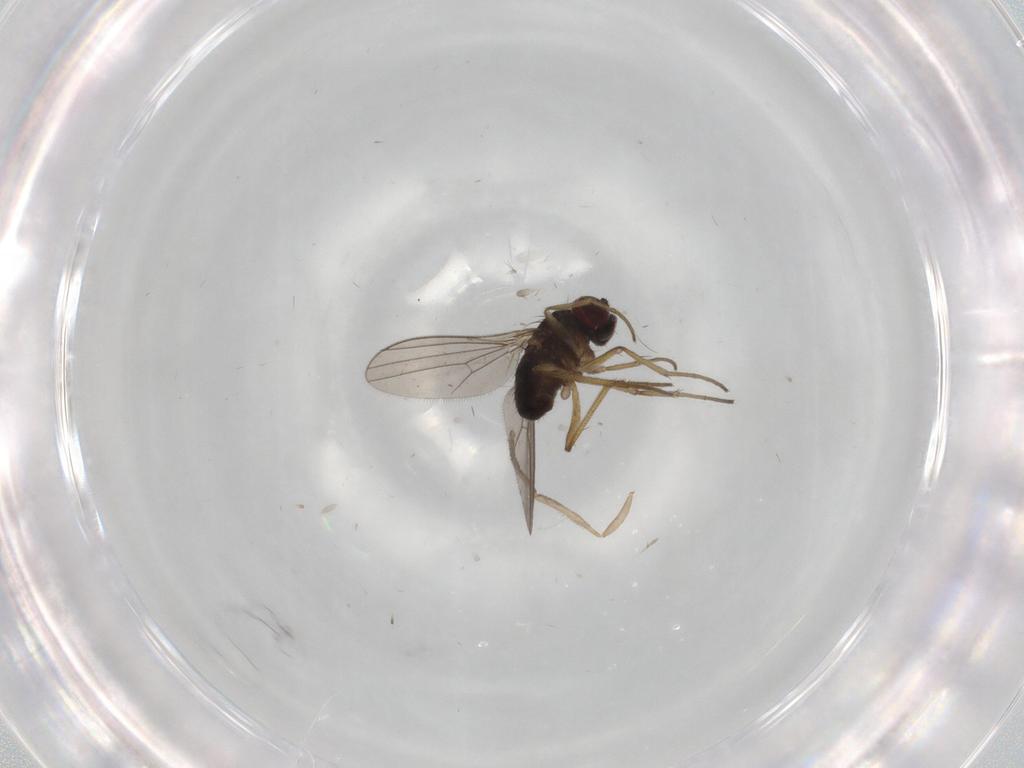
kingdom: Animalia
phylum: Arthropoda
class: Insecta
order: Diptera
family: Dolichopodidae
